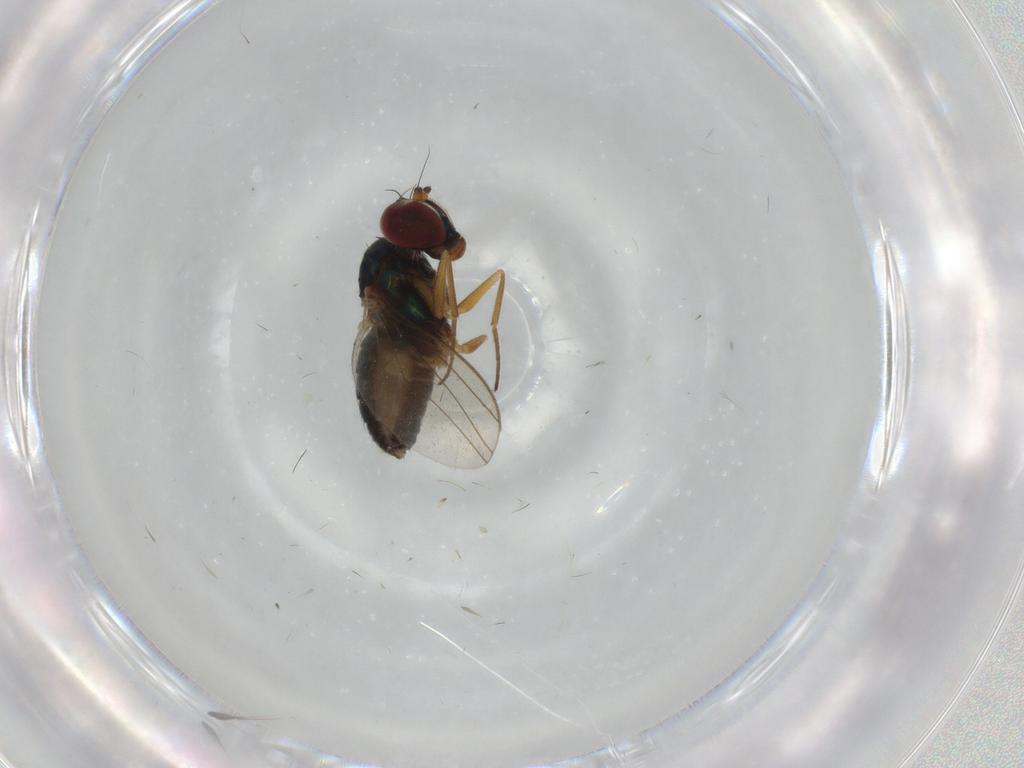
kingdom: Animalia
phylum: Arthropoda
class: Insecta
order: Diptera
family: Dolichopodidae
